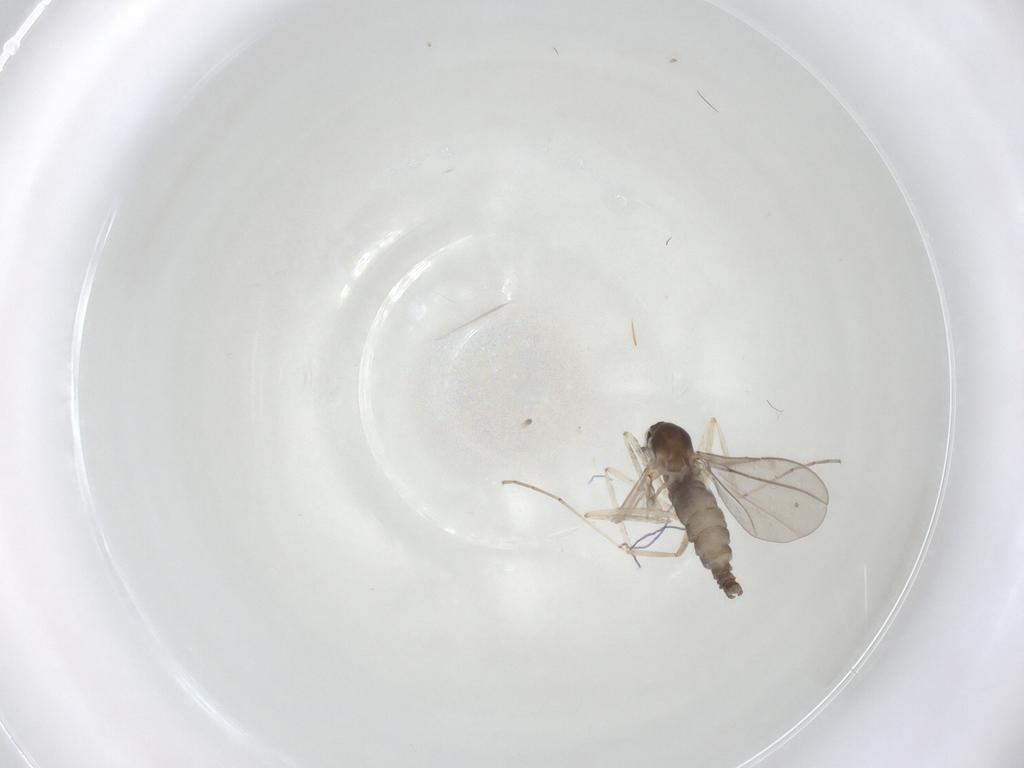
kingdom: Animalia
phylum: Arthropoda
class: Insecta
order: Diptera
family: Cecidomyiidae
